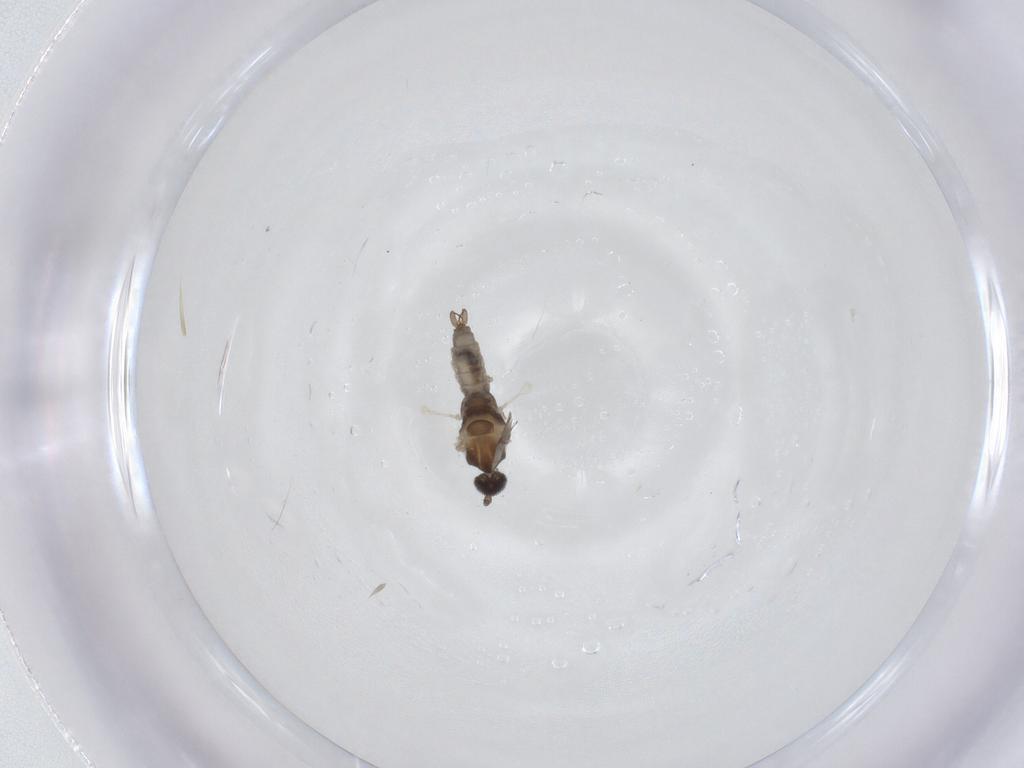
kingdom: Animalia
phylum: Arthropoda
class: Insecta
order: Diptera
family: Cecidomyiidae
